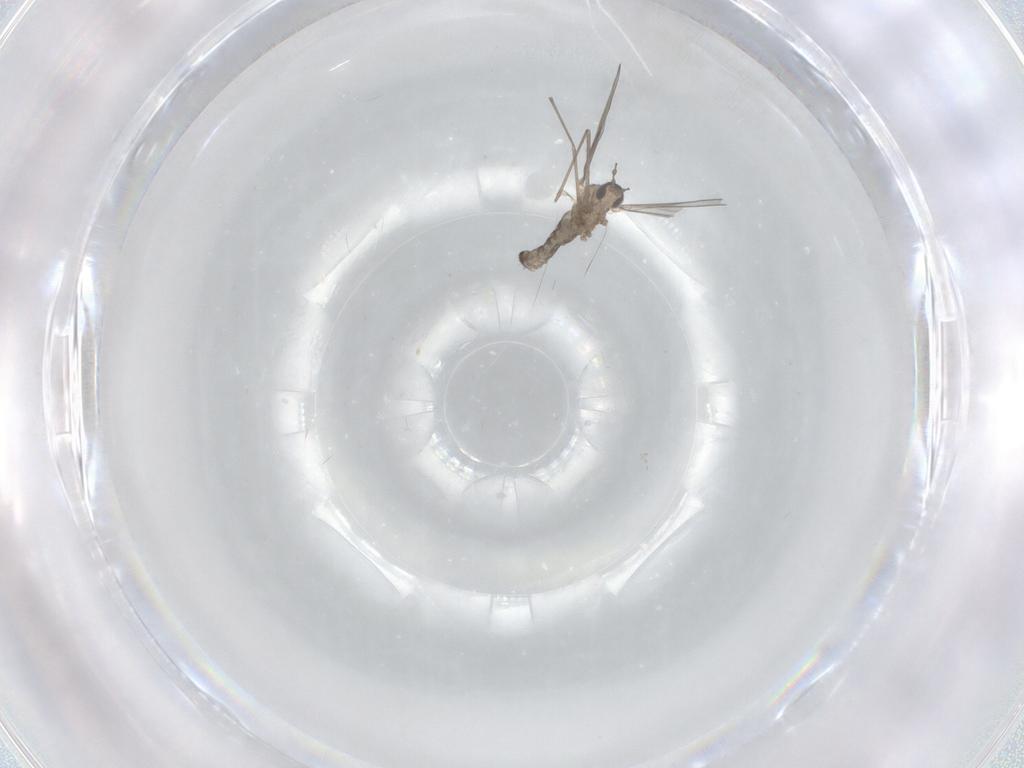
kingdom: Animalia
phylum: Arthropoda
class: Insecta
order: Diptera
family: Cecidomyiidae
